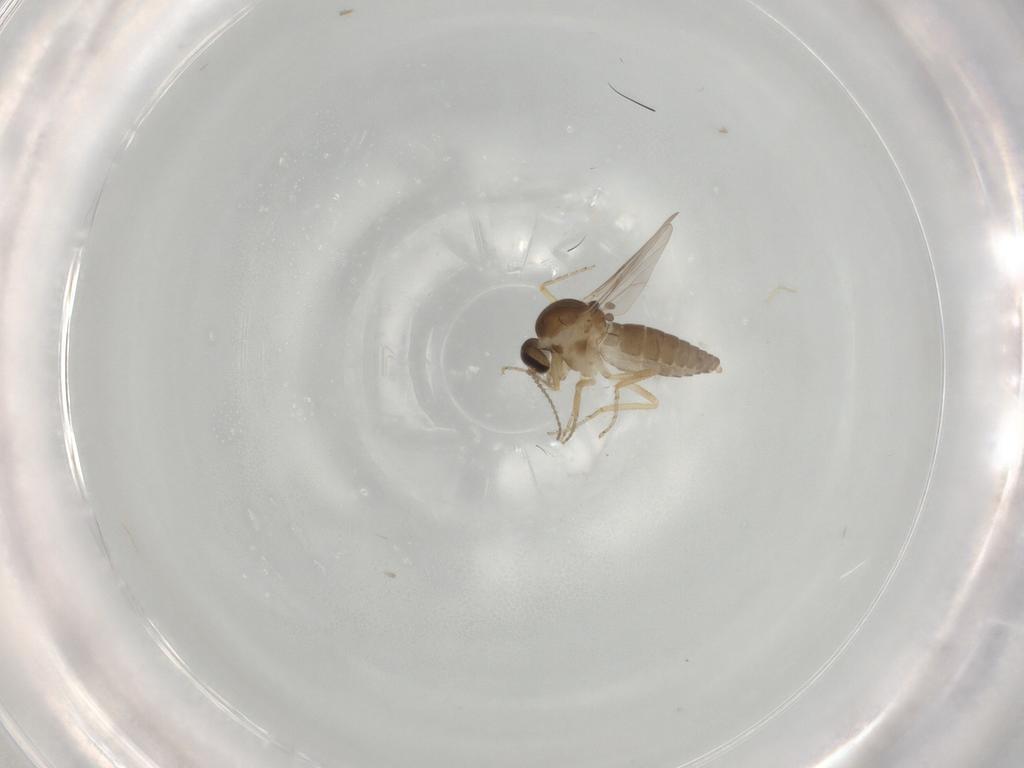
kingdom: Animalia
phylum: Arthropoda
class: Insecta
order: Diptera
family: Ceratopogonidae
